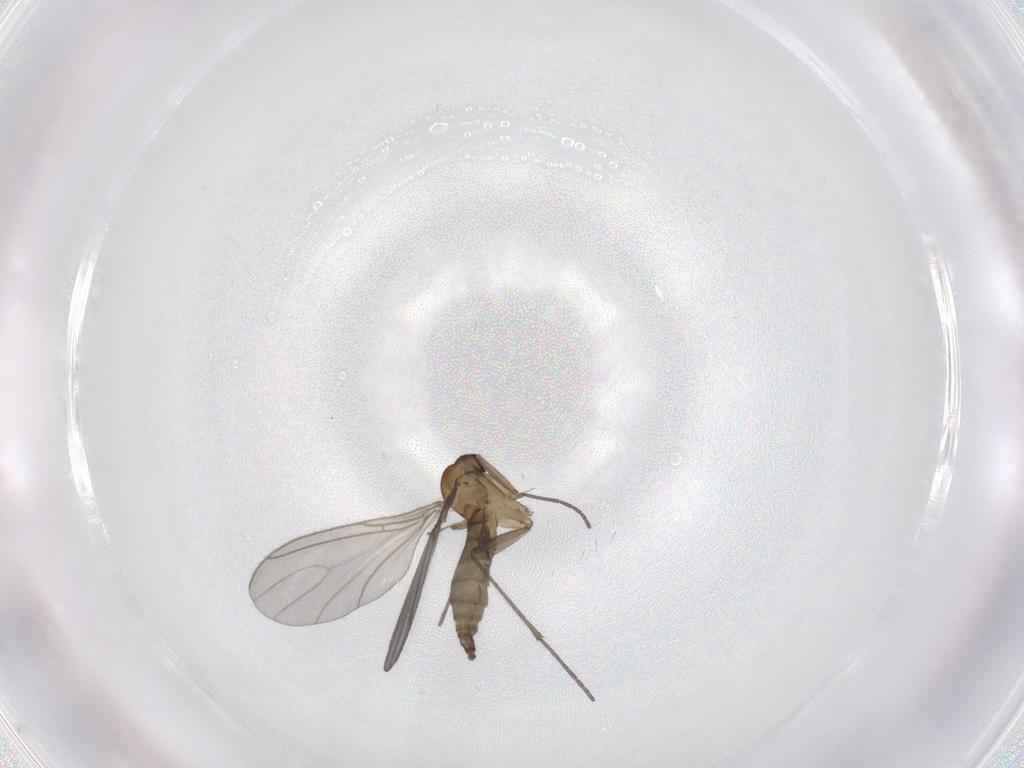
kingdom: Animalia
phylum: Arthropoda
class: Insecta
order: Diptera
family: Sciaridae
